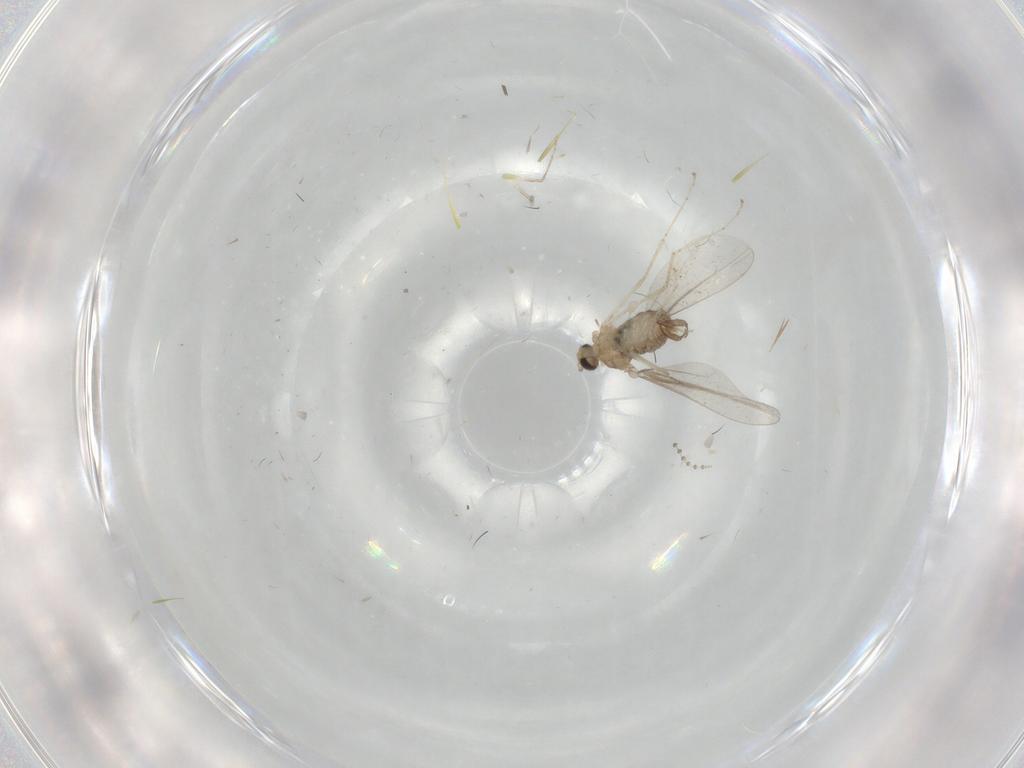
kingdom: Animalia
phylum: Arthropoda
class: Insecta
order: Diptera
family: Cecidomyiidae
